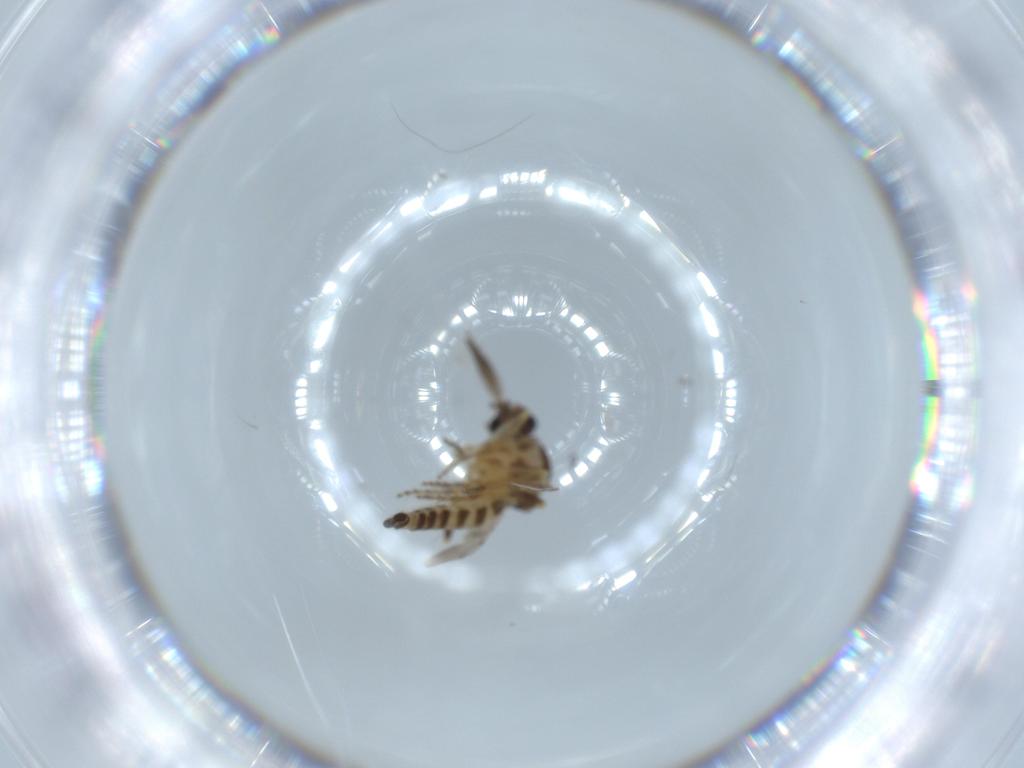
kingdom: Animalia
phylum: Arthropoda
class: Insecta
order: Diptera
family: Ceratopogonidae
